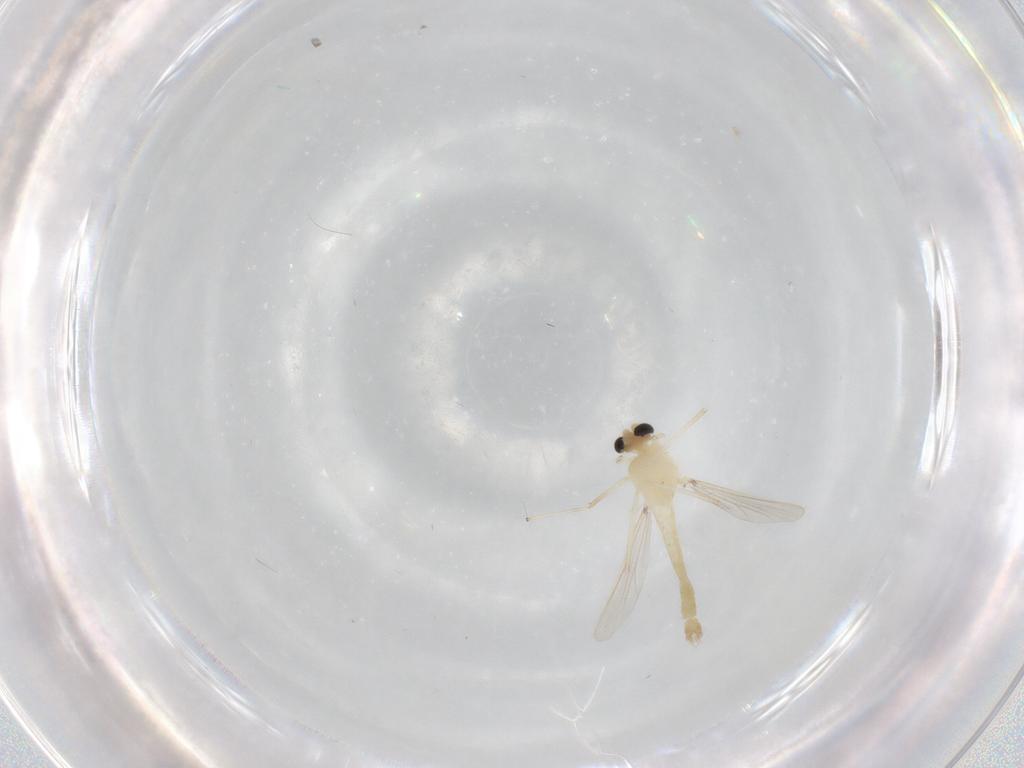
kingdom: Animalia
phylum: Arthropoda
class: Insecta
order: Diptera
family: Chironomidae
